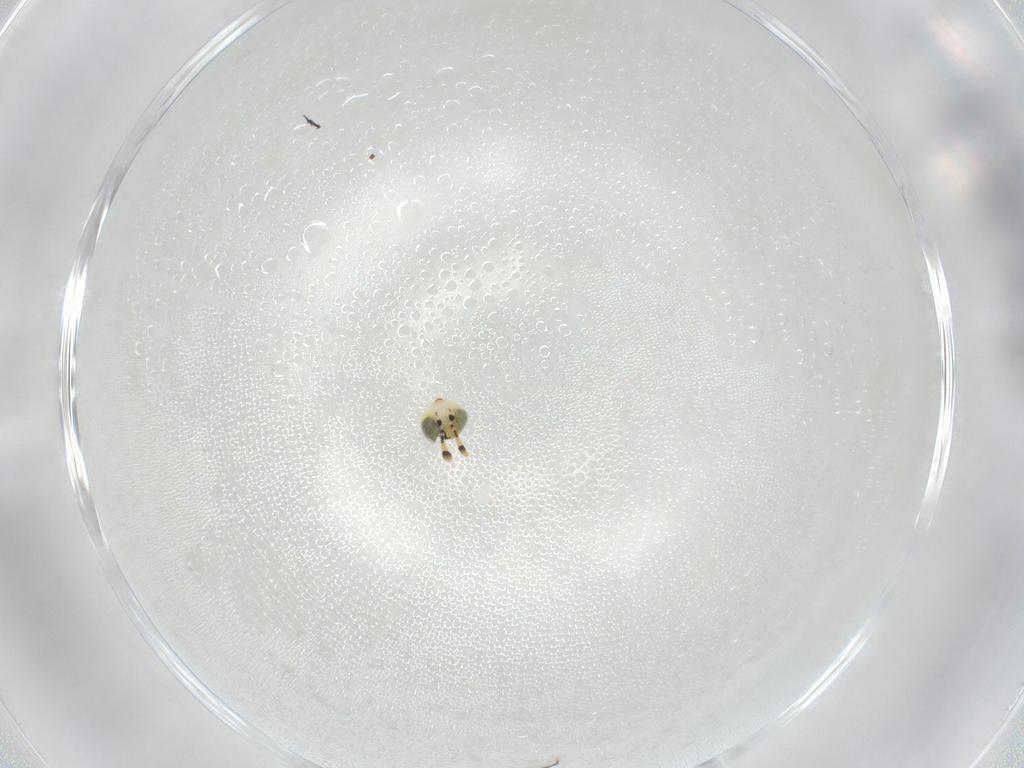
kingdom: Animalia
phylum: Arthropoda
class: Insecta
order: Hymenoptera
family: Encyrtidae
